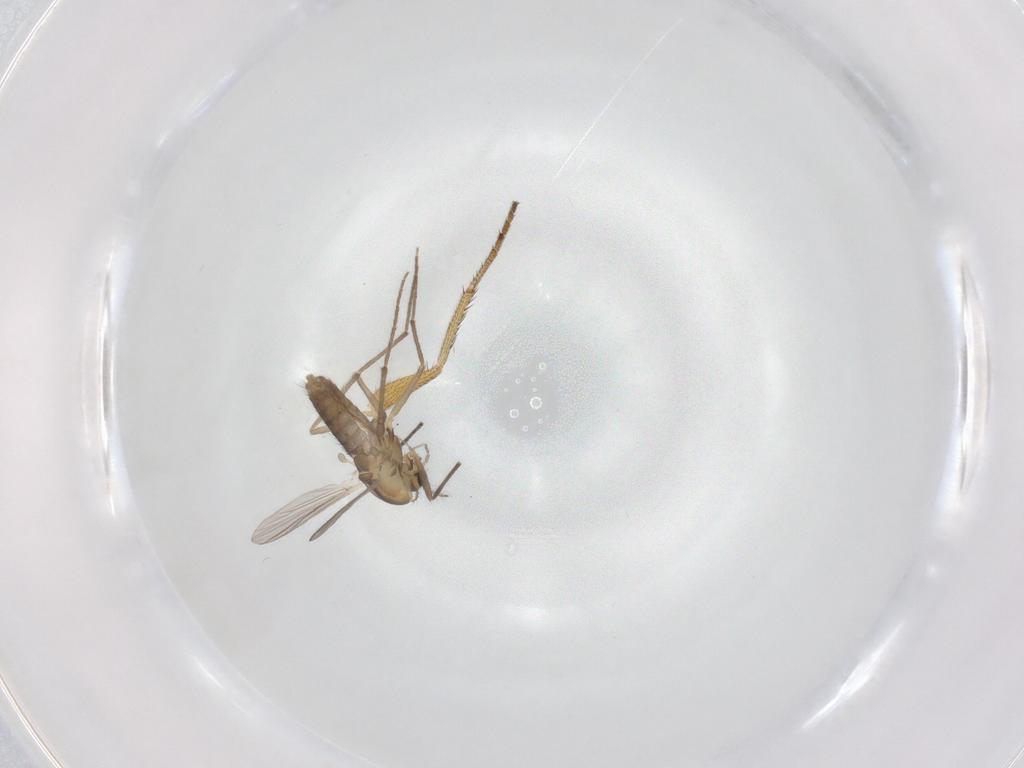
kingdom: Animalia
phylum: Arthropoda
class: Insecta
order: Diptera
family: Chironomidae
